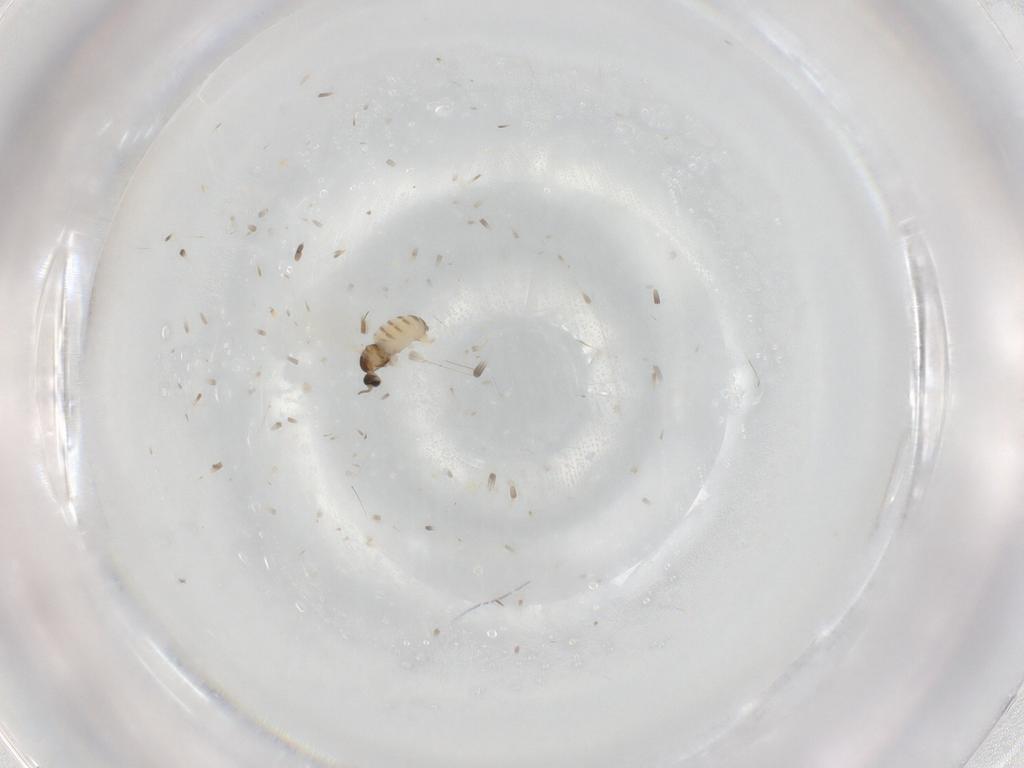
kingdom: Animalia
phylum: Arthropoda
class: Insecta
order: Diptera
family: Cecidomyiidae
